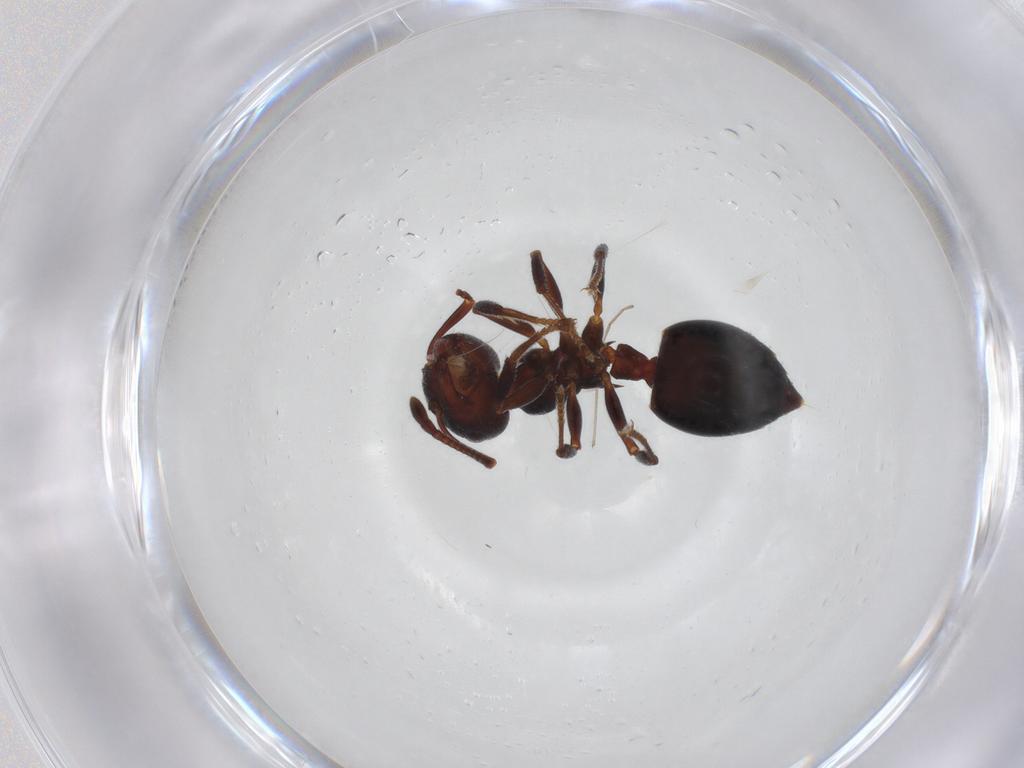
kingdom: Animalia
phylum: Arthropoda
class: Insecta
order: Hymenoptera
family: Formicidae
